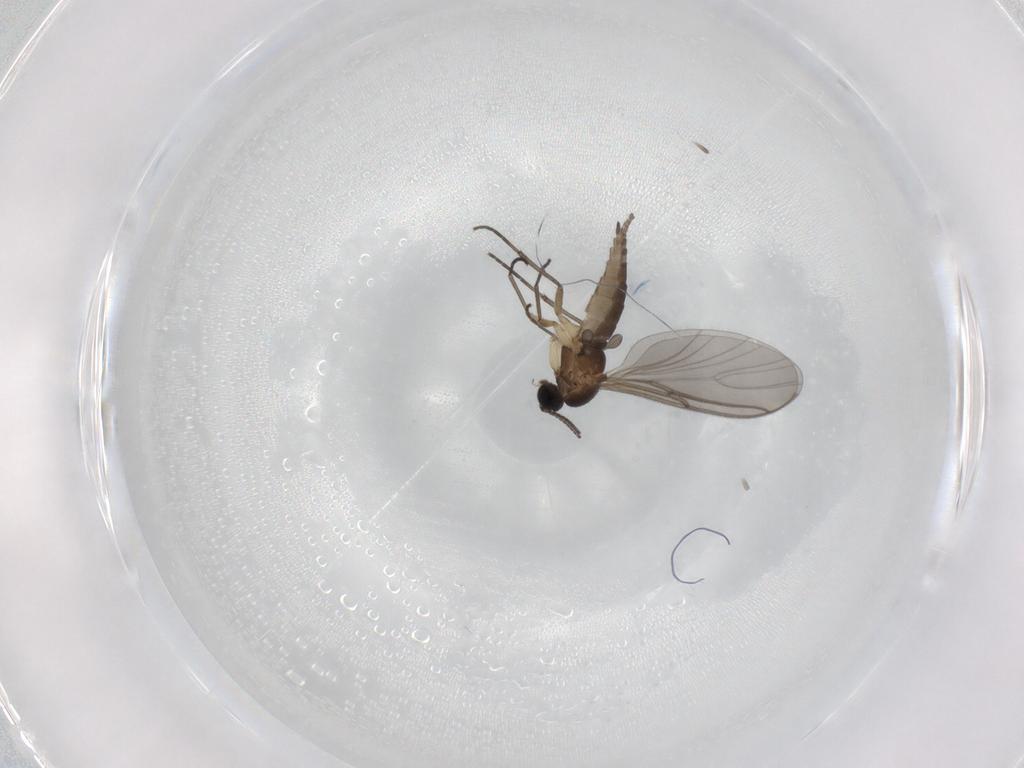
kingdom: Animalia
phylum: Arthropoda
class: Insecta
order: Diptera
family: Sciaridae
